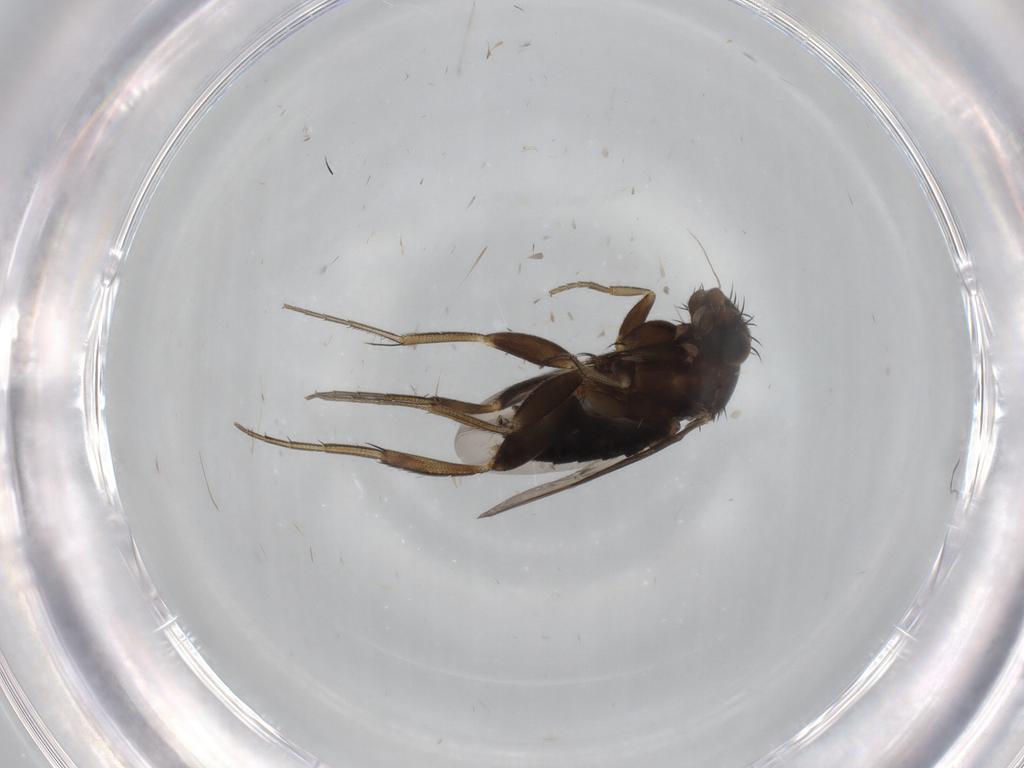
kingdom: Animalia
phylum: Arthropoda
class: Insecta
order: Diptera
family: Phoridae
